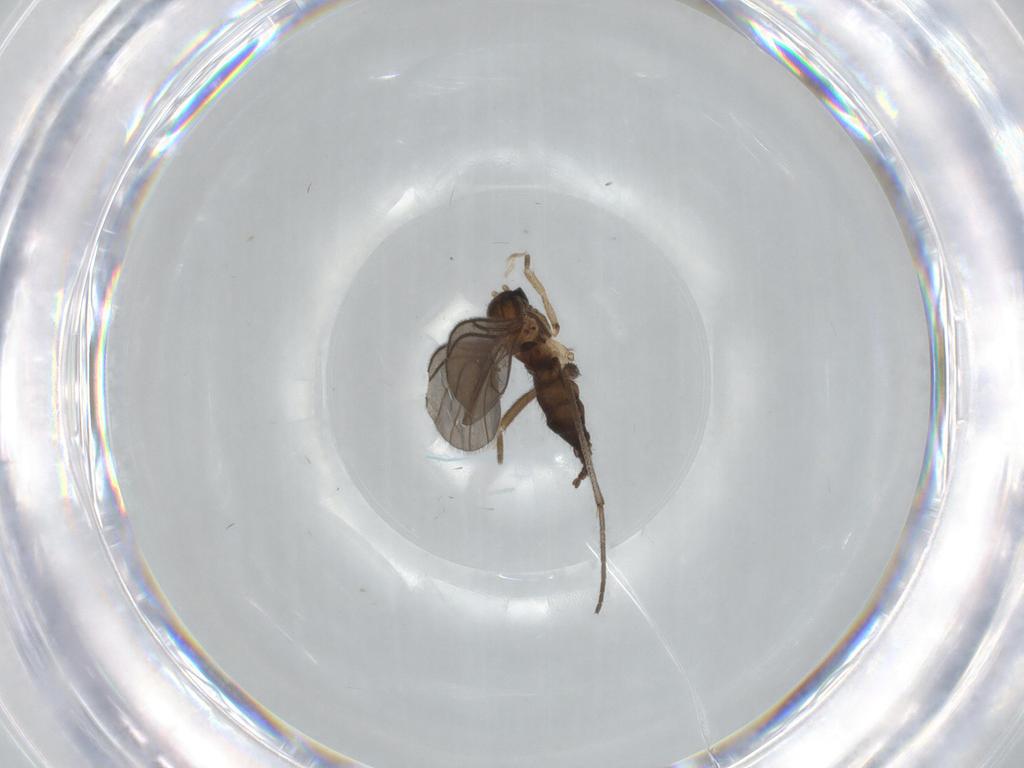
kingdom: Animalia
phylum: Arthropoda
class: Insecta
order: Diptera
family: Sciaridae
